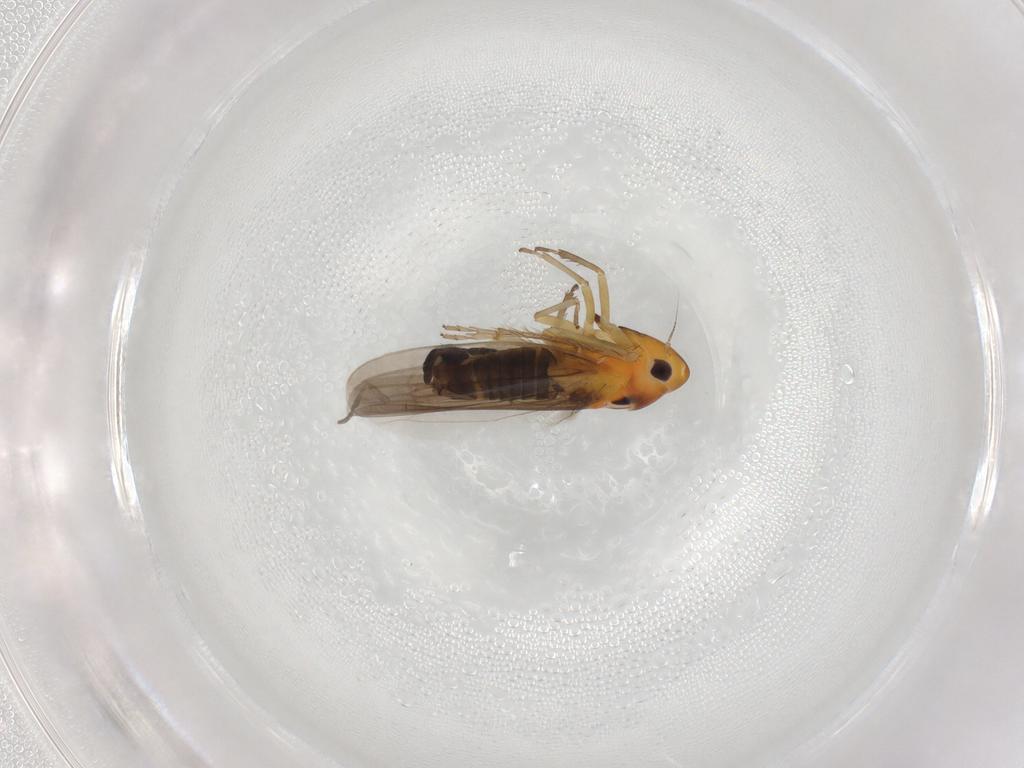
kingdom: Animalia
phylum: Arthropoda
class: Insecta
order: Hemiptera
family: Cicadellidae
